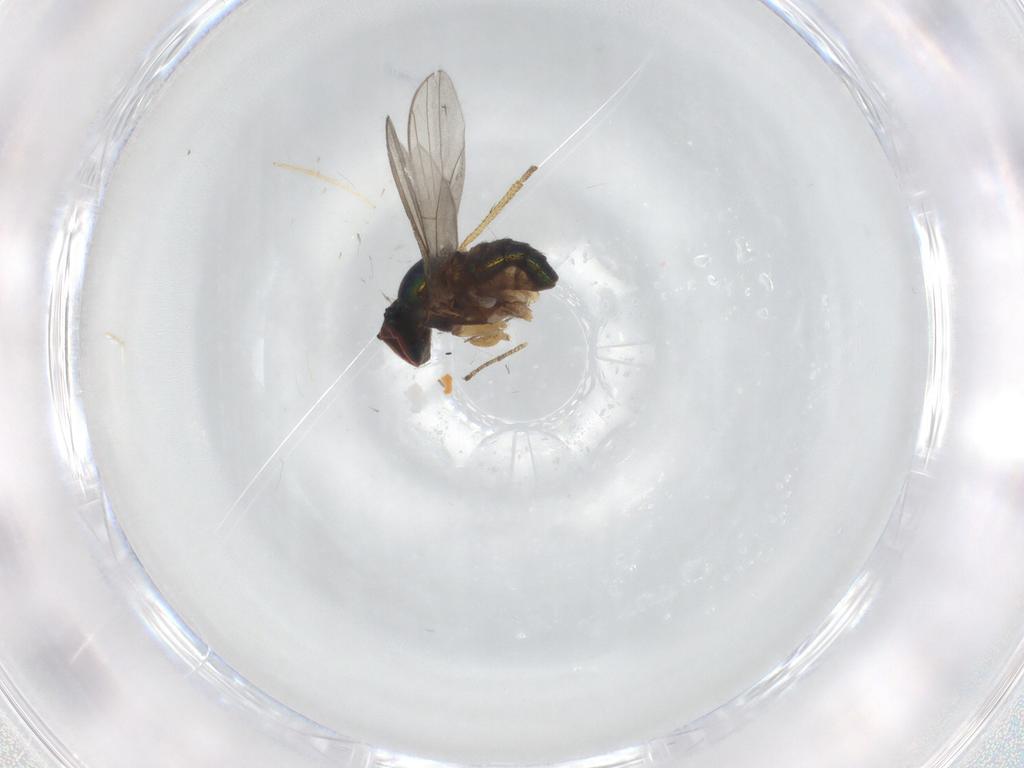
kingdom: Animalia
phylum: Arthropoda
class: Insecta
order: Diptera
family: Chironomidae
